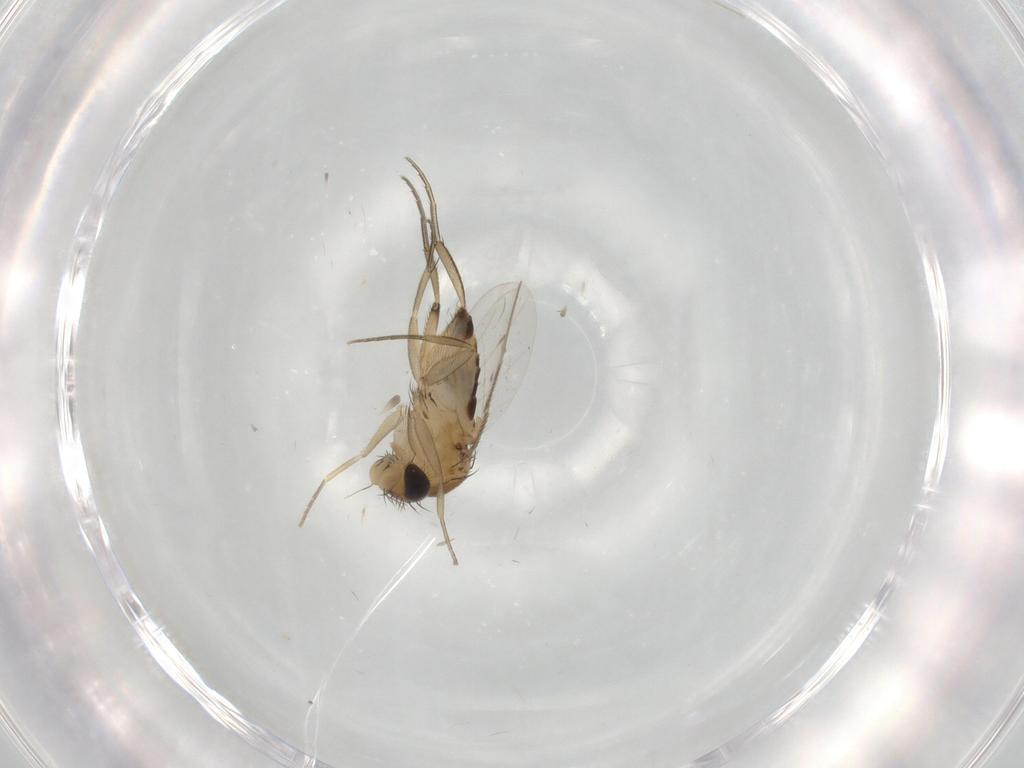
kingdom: Animalia
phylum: Arthropoda
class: Insecta
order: Diptera
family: Phoridae
